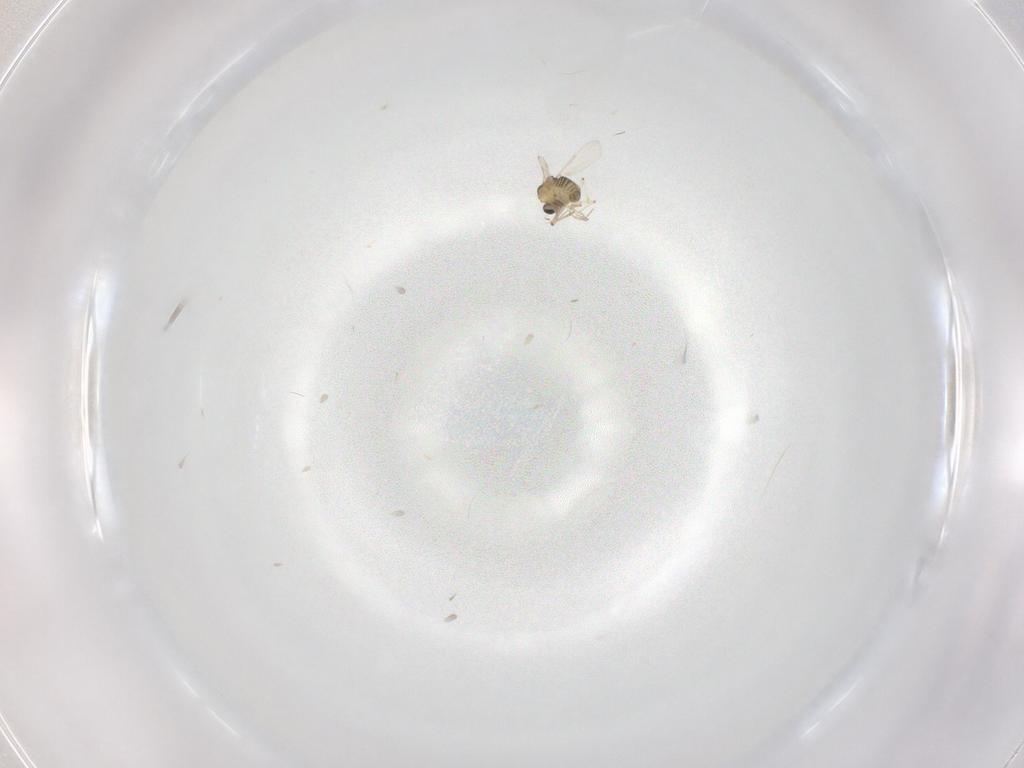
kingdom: Animalia
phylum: Arthropoda
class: Insecta
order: Diptera
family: Chironomidae
